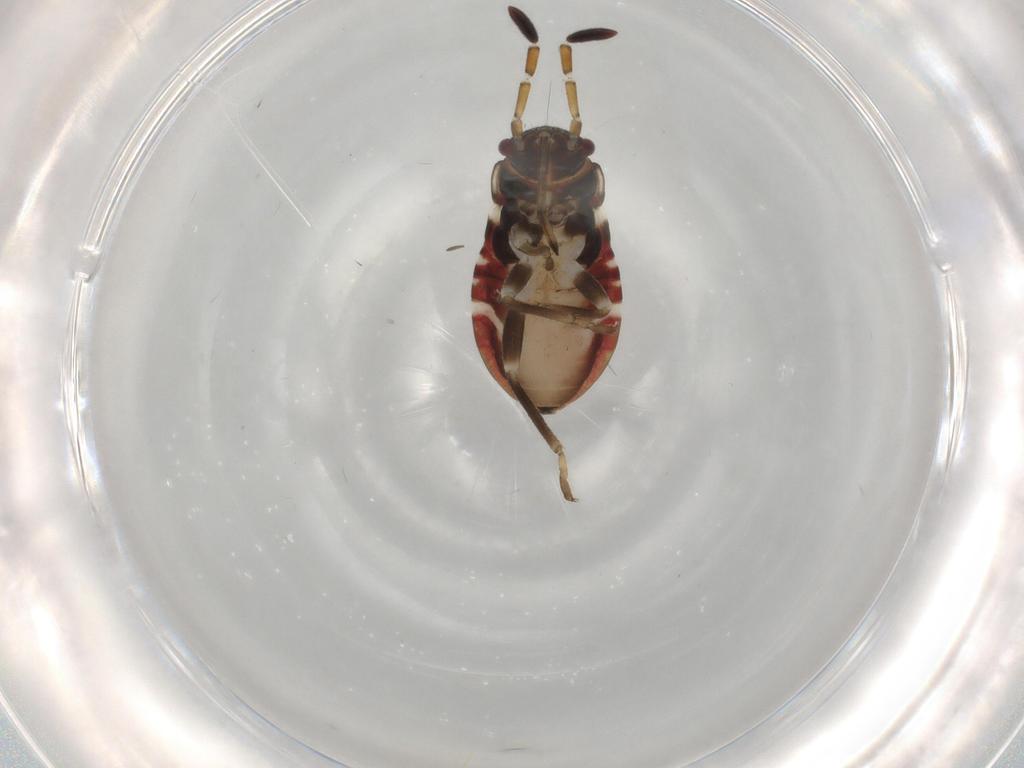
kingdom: Animalia
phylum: Arthropoda
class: Insecta
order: Hemiptera
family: Rhyparochromidae
